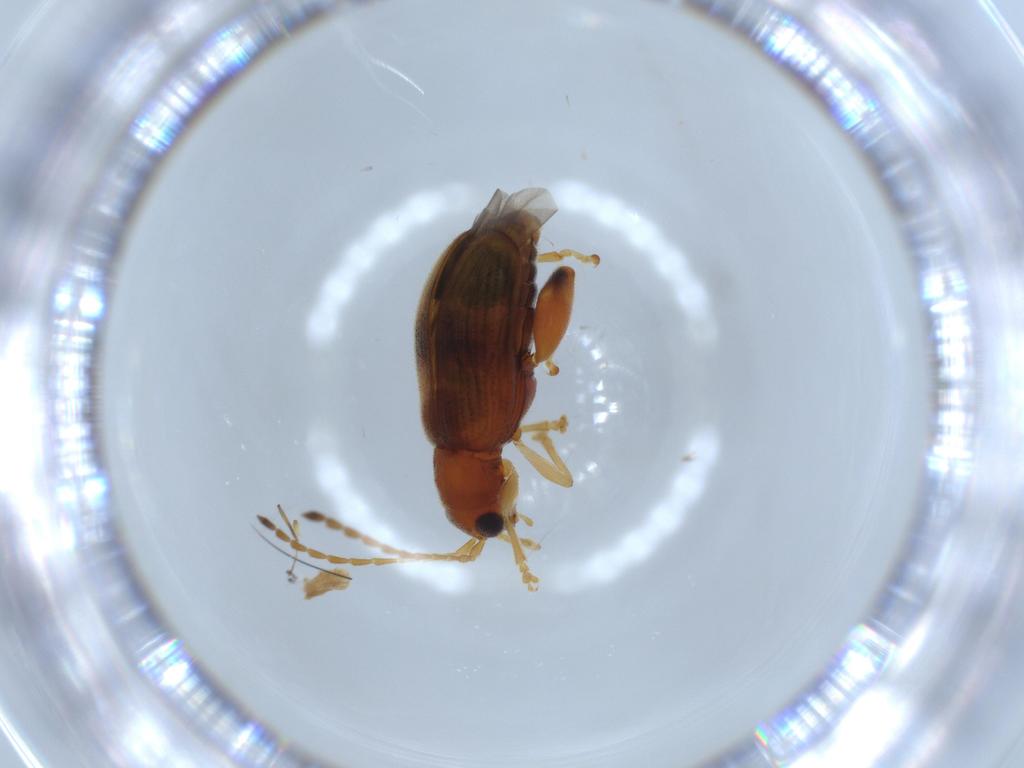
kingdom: Animalia
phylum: Arthropoda
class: Insecta
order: Coleoptera
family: Chrysomelidae
